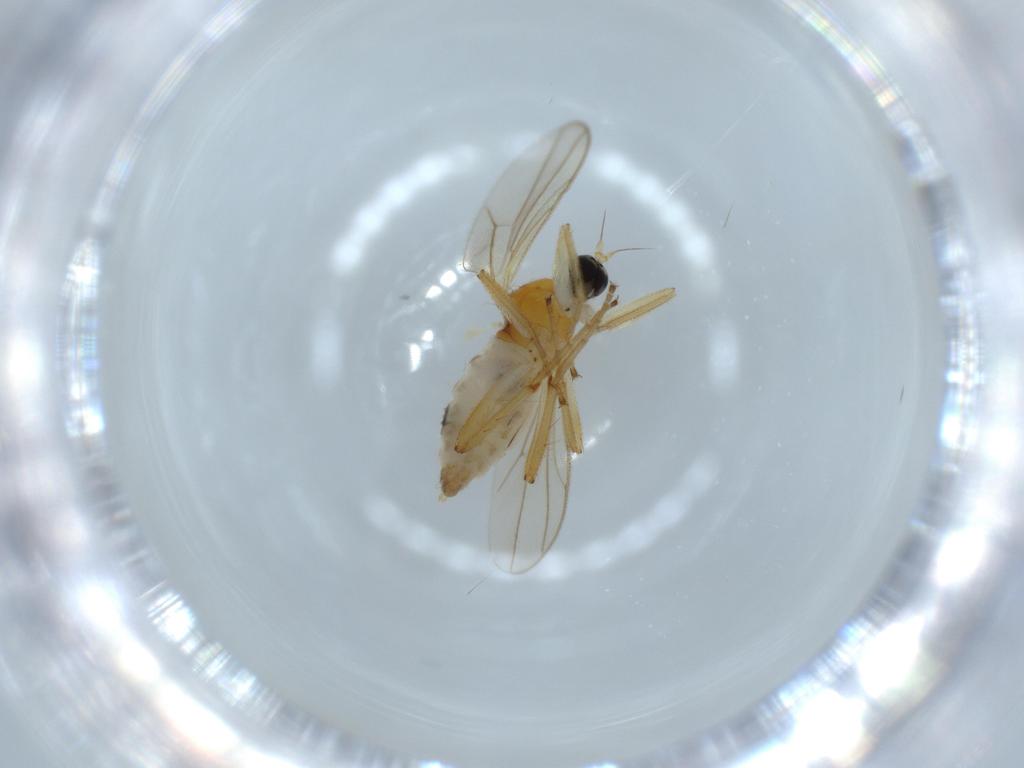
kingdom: Animalia
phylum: Arthropoda
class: Insecta
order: Diptera
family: Hybotidae
